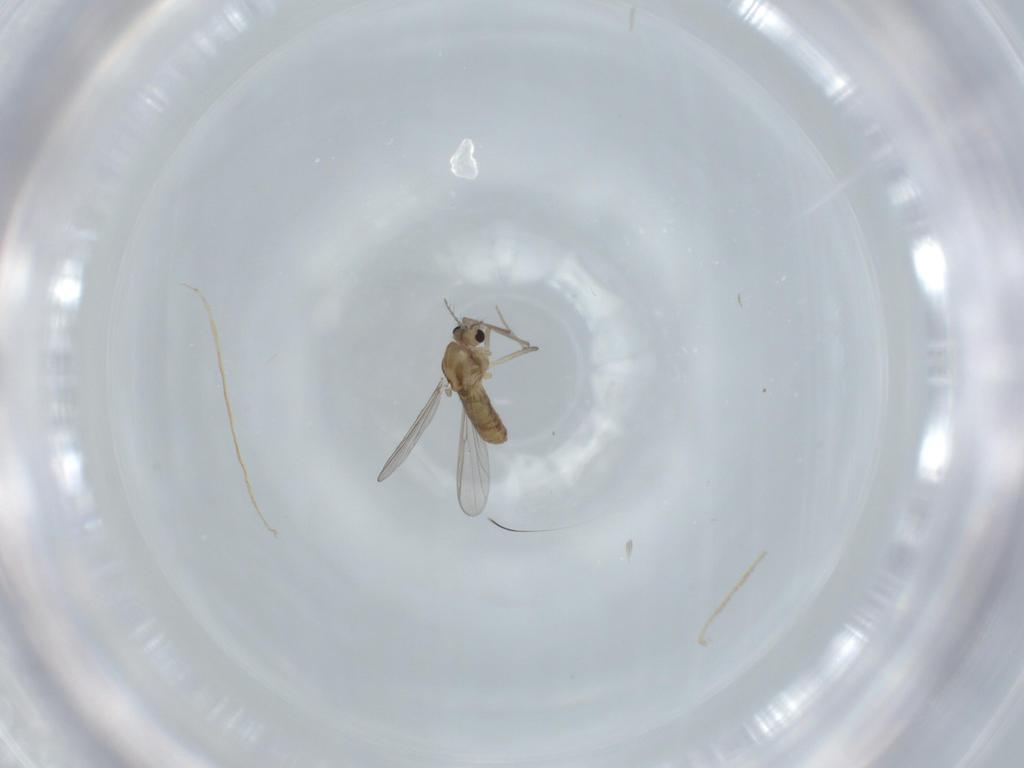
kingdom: Animalia
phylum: Arthropoda
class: Insecta
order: Diptera
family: Chironomidae
